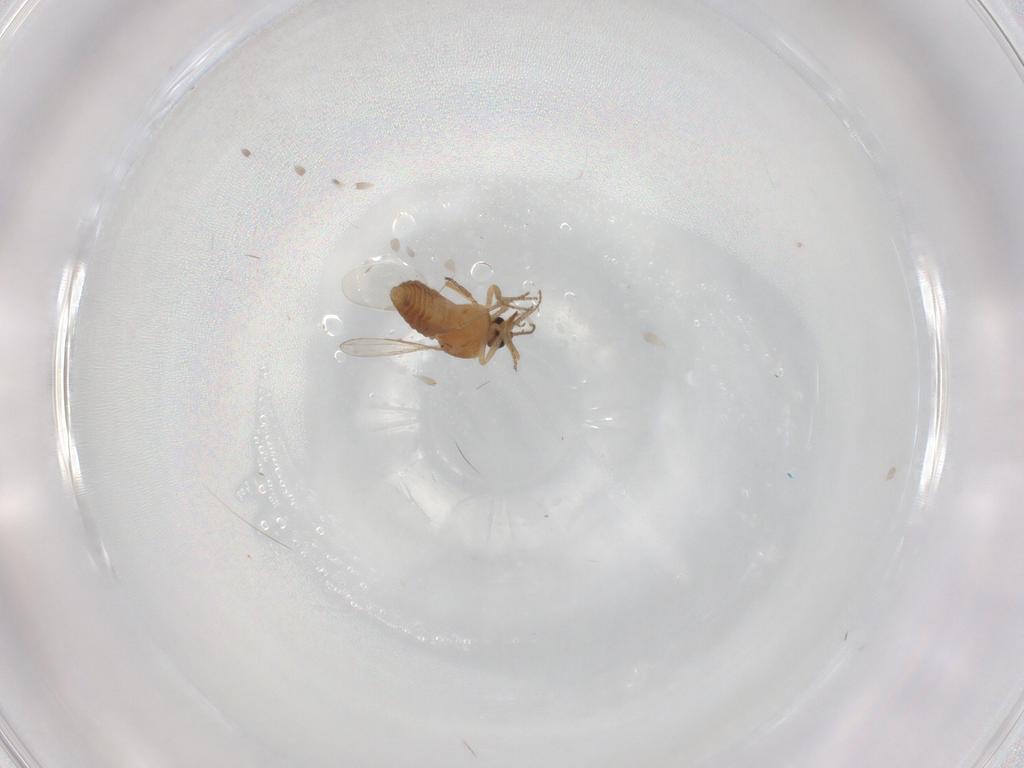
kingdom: Animalia
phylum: Arthropoda
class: Insecta
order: Diptera
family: Ceratopogonidae
